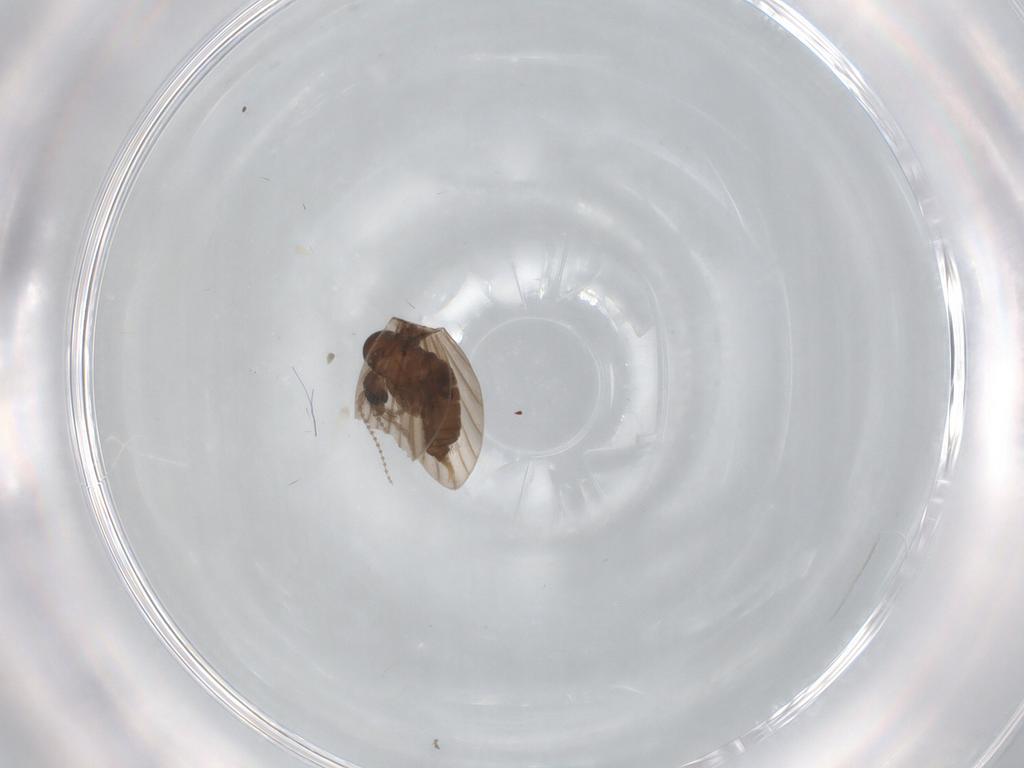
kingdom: Animalia
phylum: Arthropoda
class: Insecta
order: Diptera
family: Psychodidae
